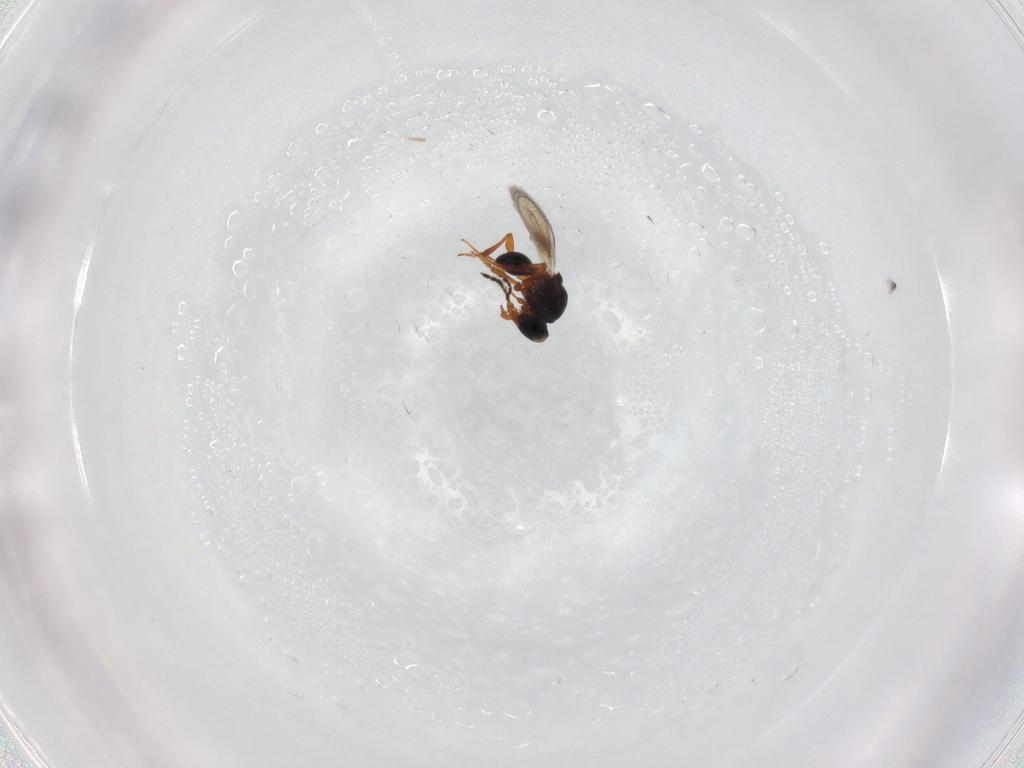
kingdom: Animalia
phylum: Arthropoda
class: Insecta
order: Hymenoptera
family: Platygastridae
